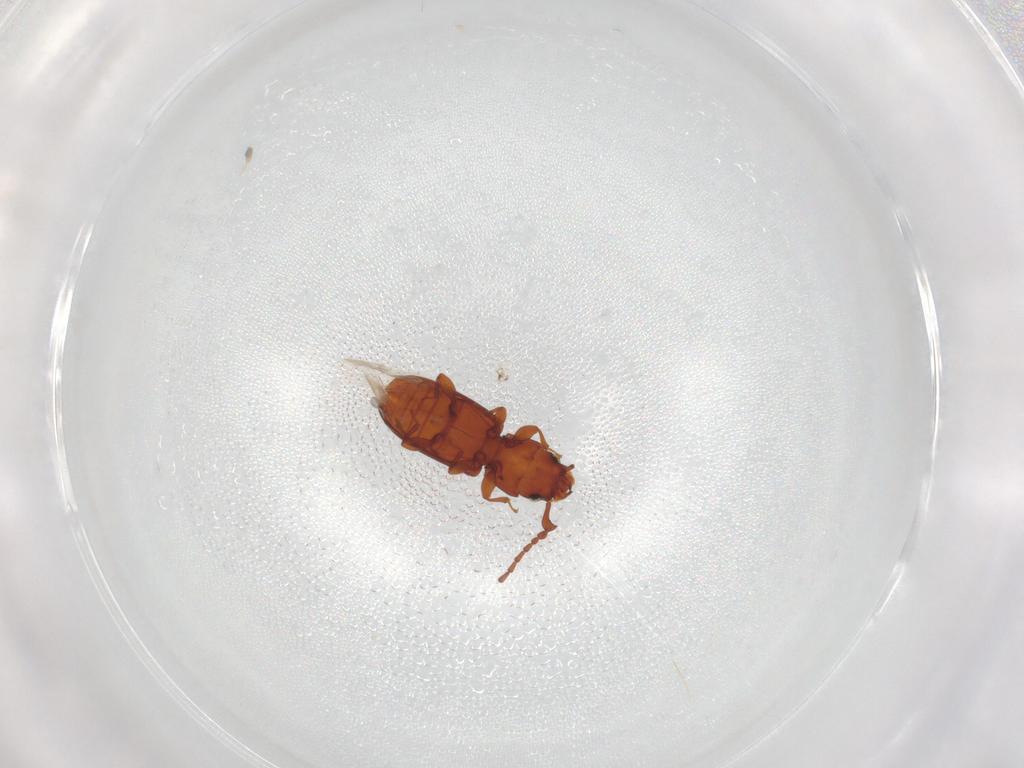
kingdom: Animalia
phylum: Arthropoda
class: Insecta
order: Coleoptera
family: Laemophloeidae
